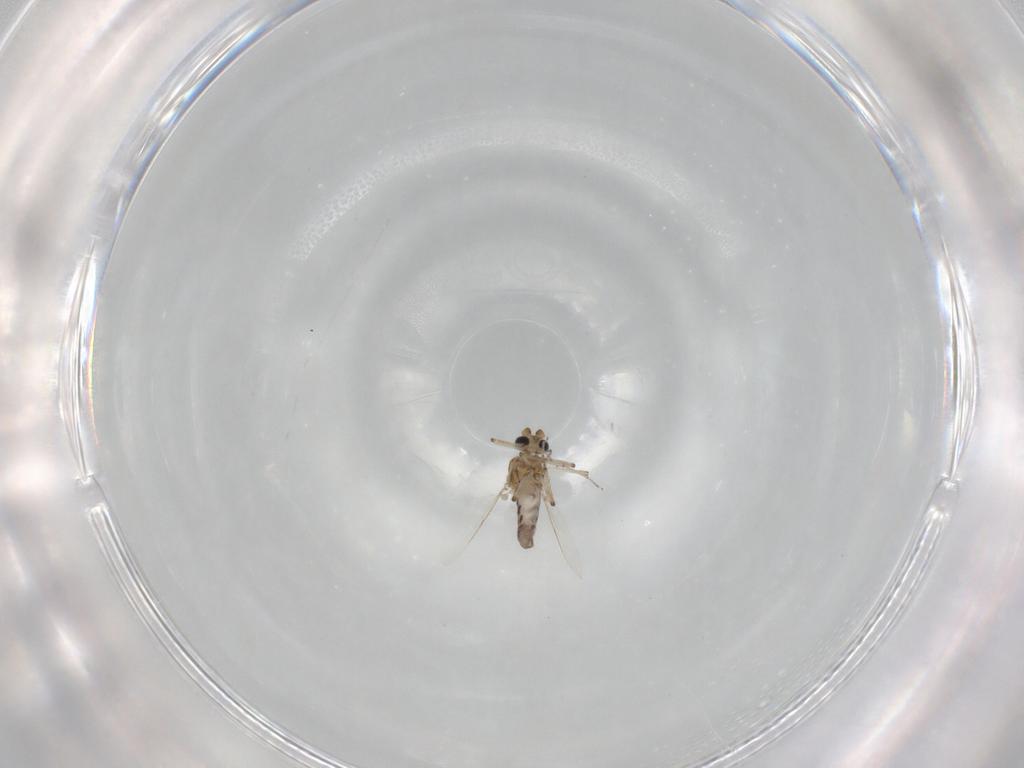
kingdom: Animalia
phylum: Arthropoda
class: Insecta
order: Diptera
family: Ceratopogonidae
